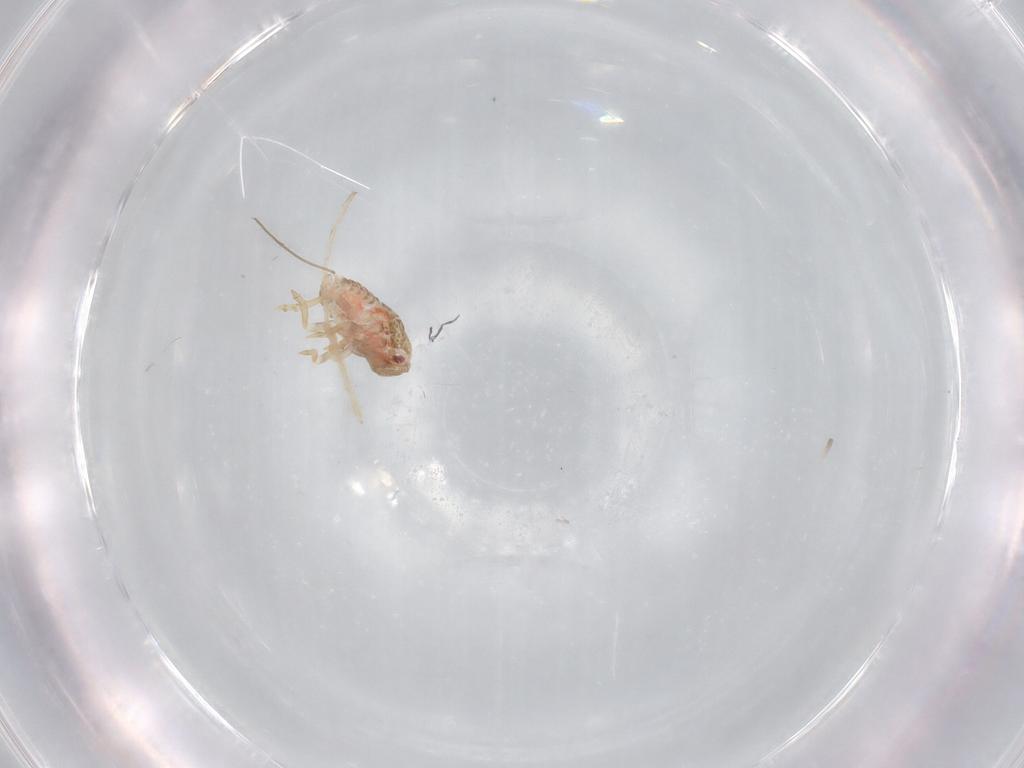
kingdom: Animalia
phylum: Arthropoda
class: Insecta
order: Hemiptera
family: Flatidae
